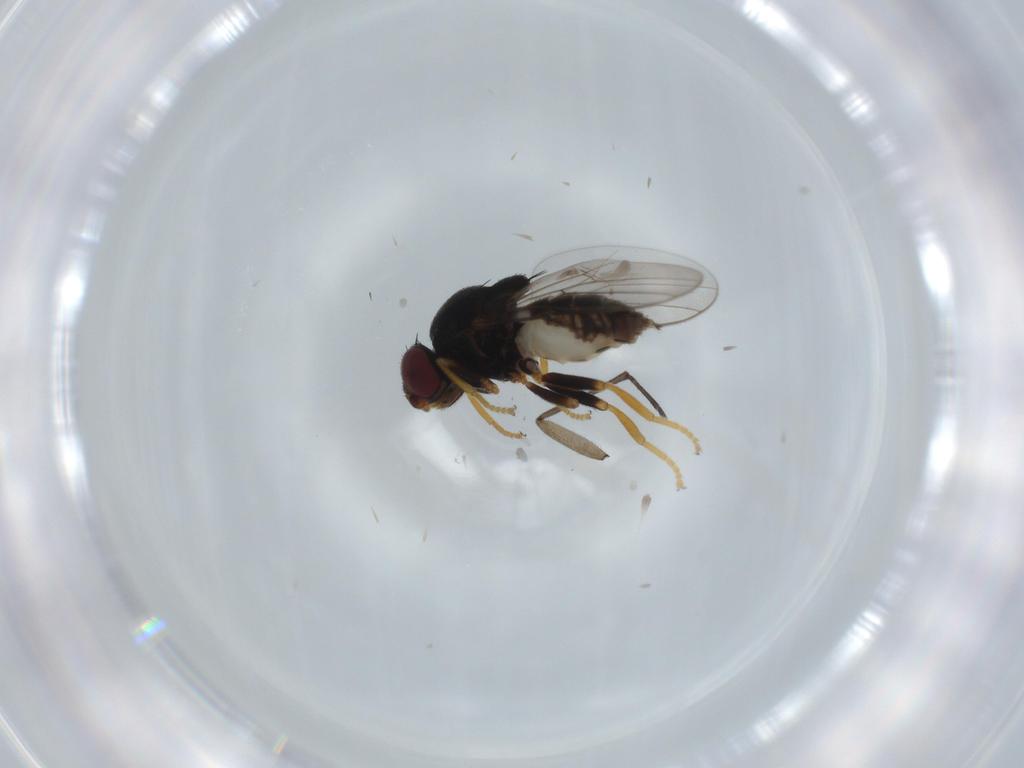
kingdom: Animalia
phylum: Arthropoda
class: Insecta
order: Diptera
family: Chloropidae
